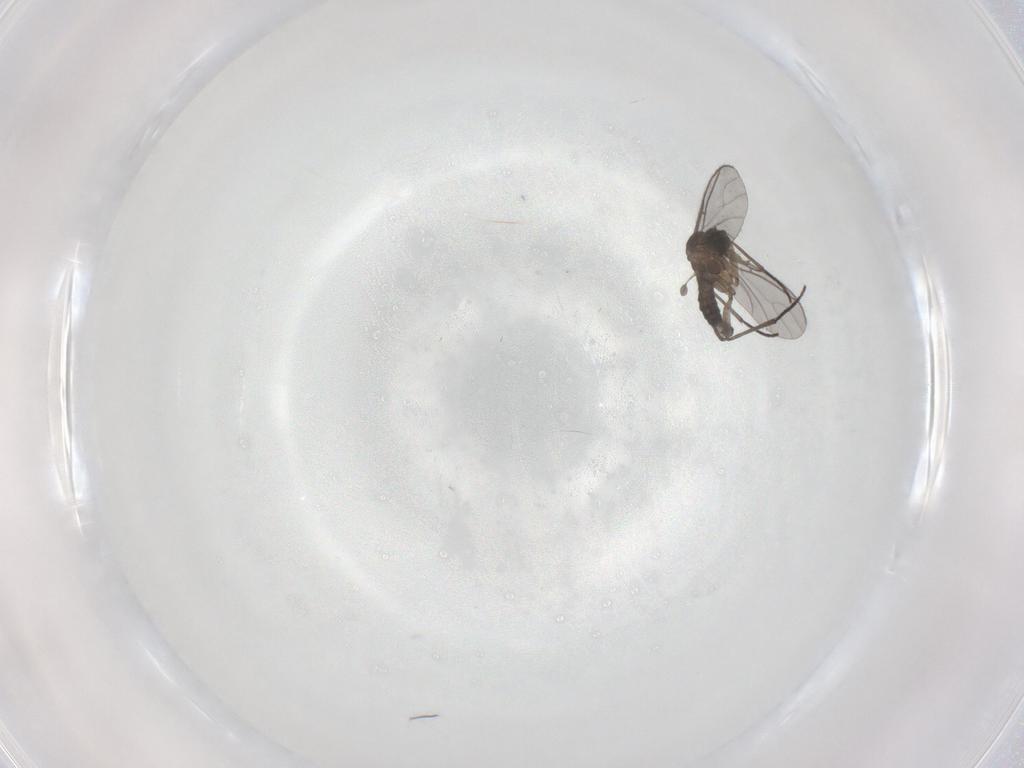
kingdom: Animalia
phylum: Arthropoda
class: Insecta
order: Diptera
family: Sciaridae
